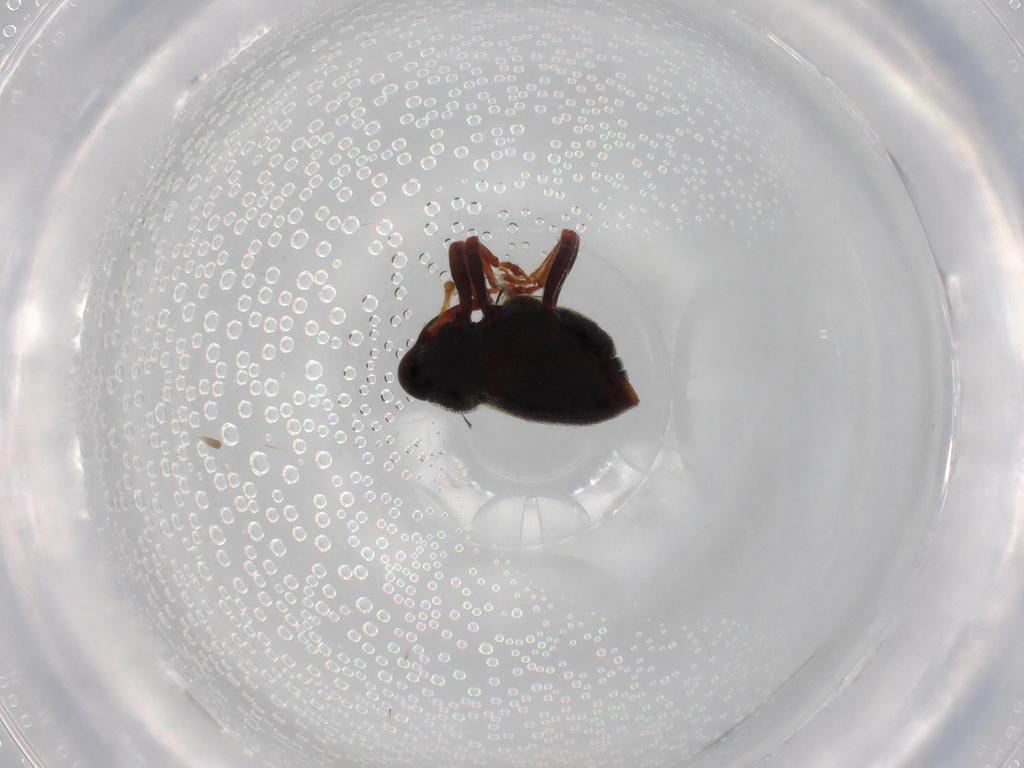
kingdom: Animalia
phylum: Arthropoda
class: Insecta
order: Coleoptera
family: Curculionidae
